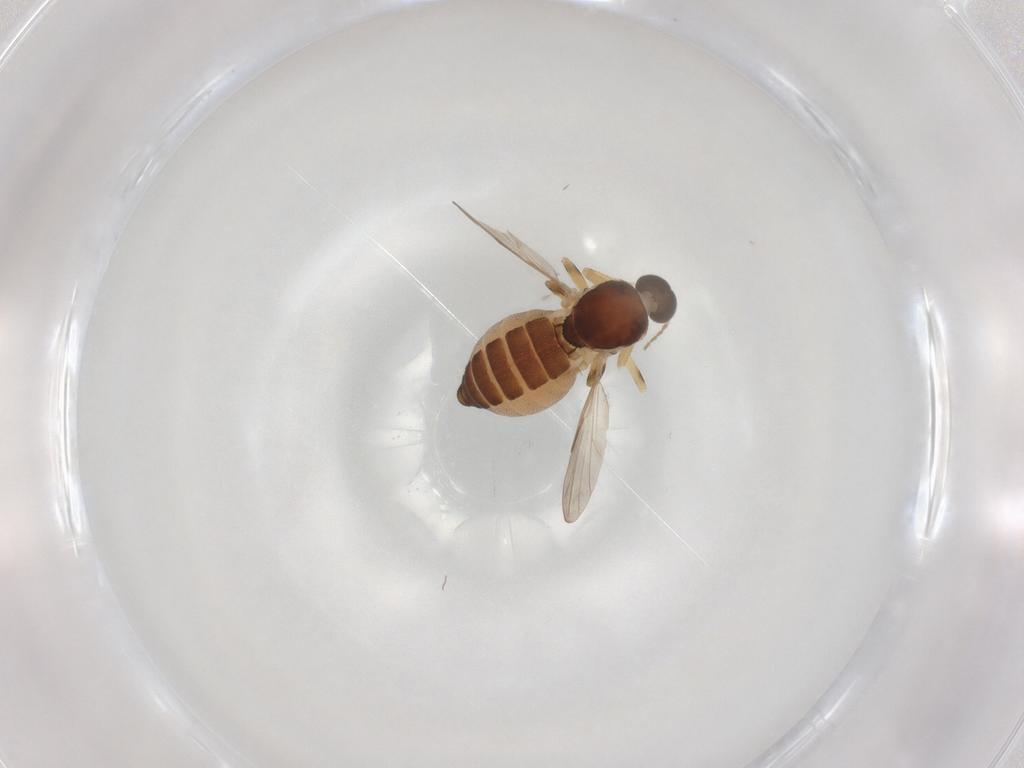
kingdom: Animalia
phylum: Arthropoda
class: Insecta
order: Diptera
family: Ceratopogonidae
